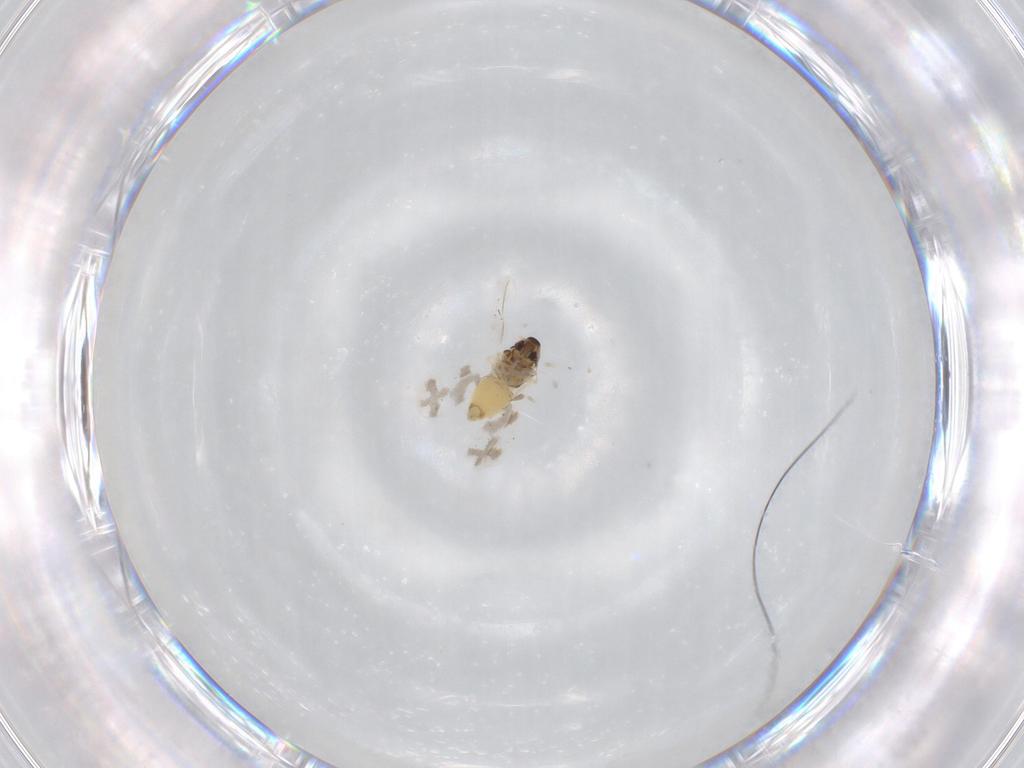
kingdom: Animalia
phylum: Arthropoda
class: Insecta
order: Hemiptera
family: Aleyrodidae
